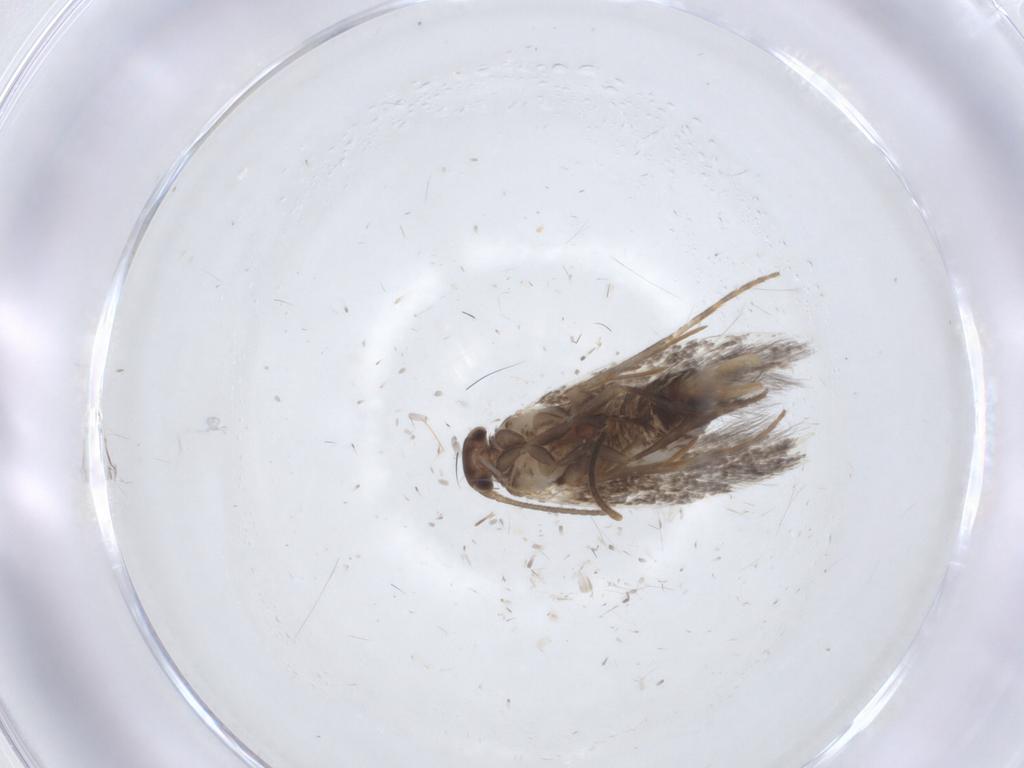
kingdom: Animalia
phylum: Arthropoda
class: Insecta
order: Lepidoptera
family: Elachistidae
